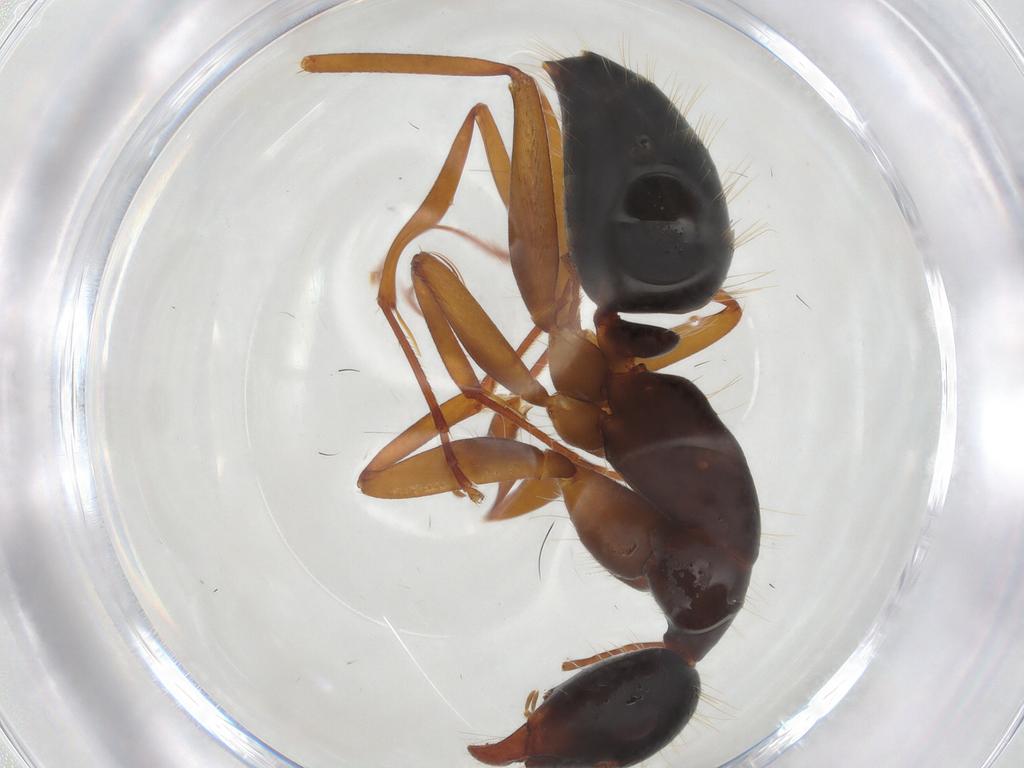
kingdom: Animalia
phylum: Arthropoda
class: Insecta
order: Hymenoptera
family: Formicidae
